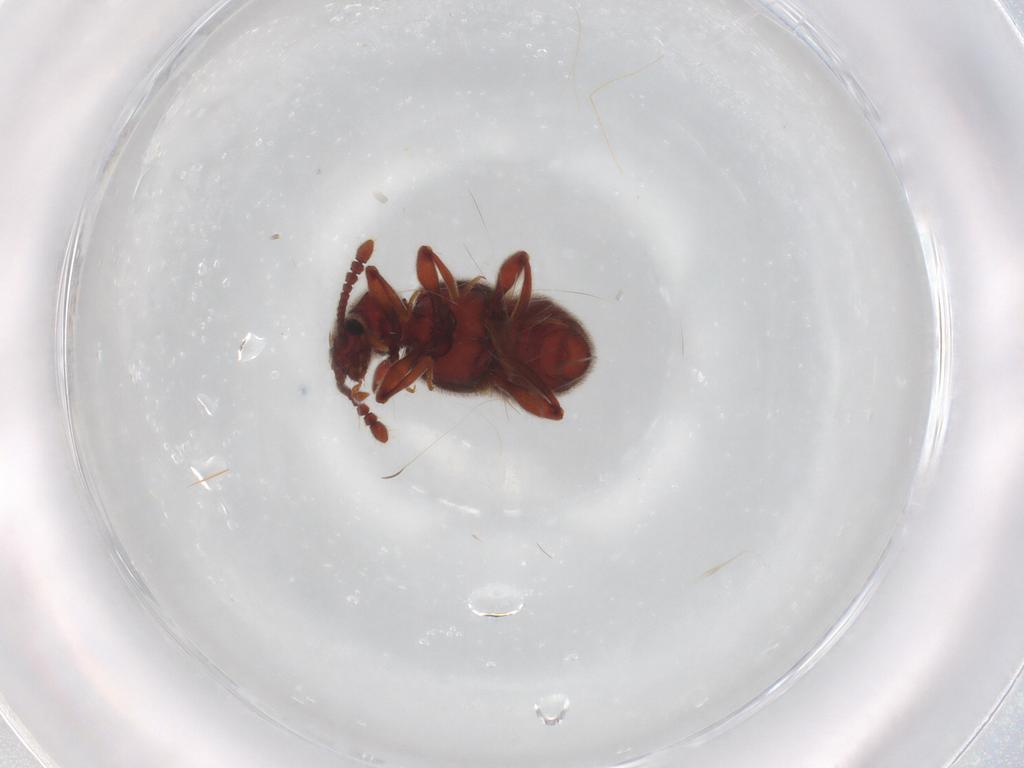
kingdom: Animalia
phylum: Arthropoda
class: Insecta
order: Coleoptera
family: Staphylinidae
